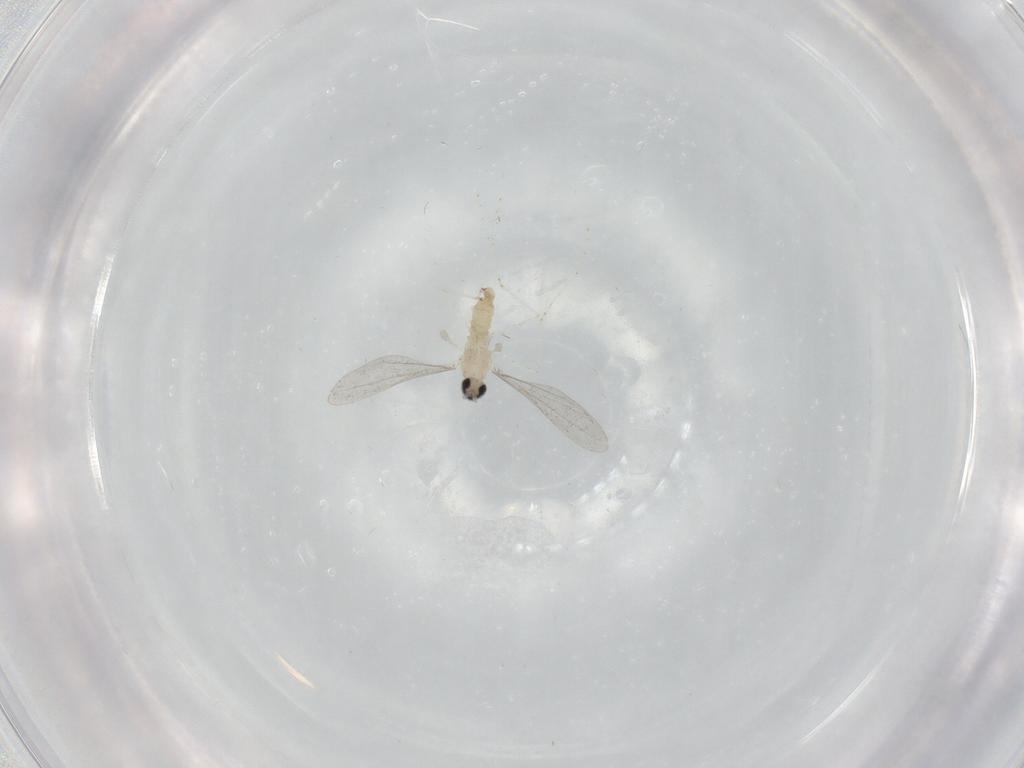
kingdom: Animalia
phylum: Arthropoda
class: Insecta
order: Diptera
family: Cecidomyiidae
